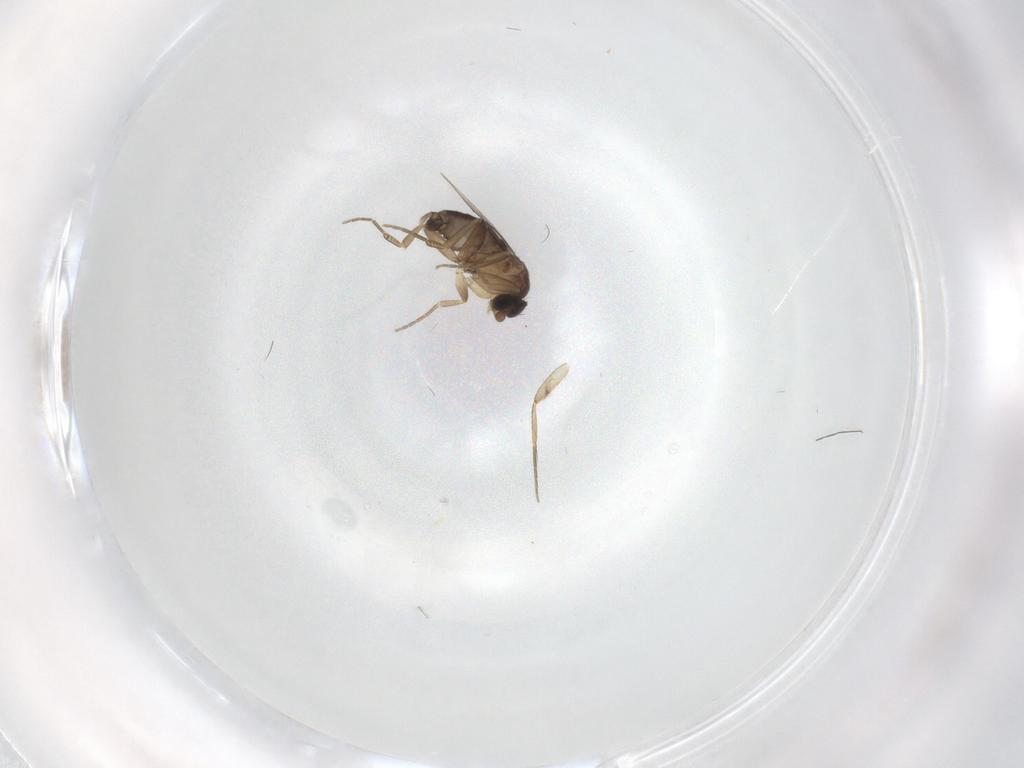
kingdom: Animalia
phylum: Arthropoda
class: Insecta
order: Diptera
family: Phoridae
